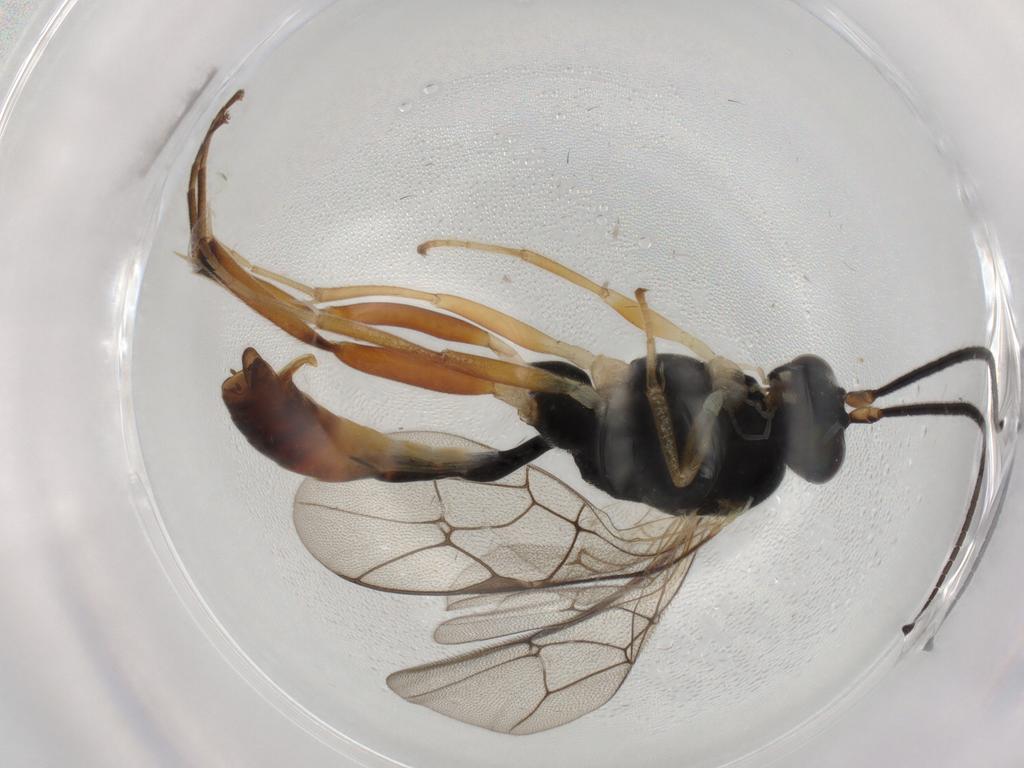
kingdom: Animalia
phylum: Arthropoda
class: Insecta
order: Hymenoptera
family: Ichneumonidae
